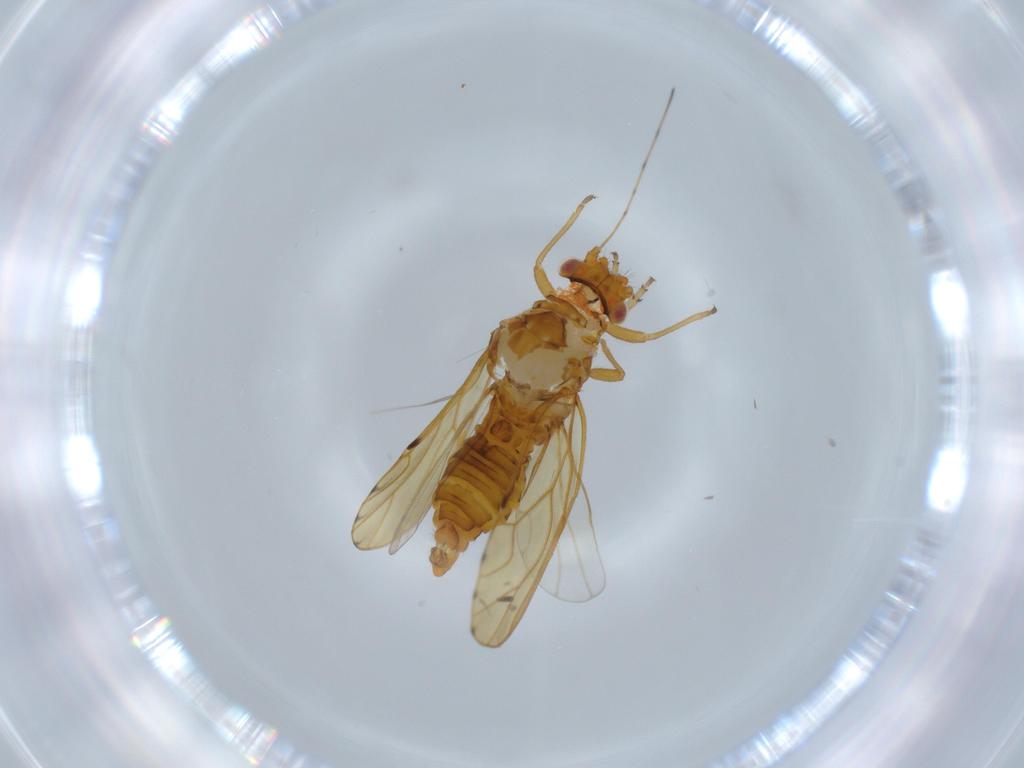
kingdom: Animalia
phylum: Arthropoda
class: Insecta
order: Hemiptera
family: Psylloidea_incertae_sedis
